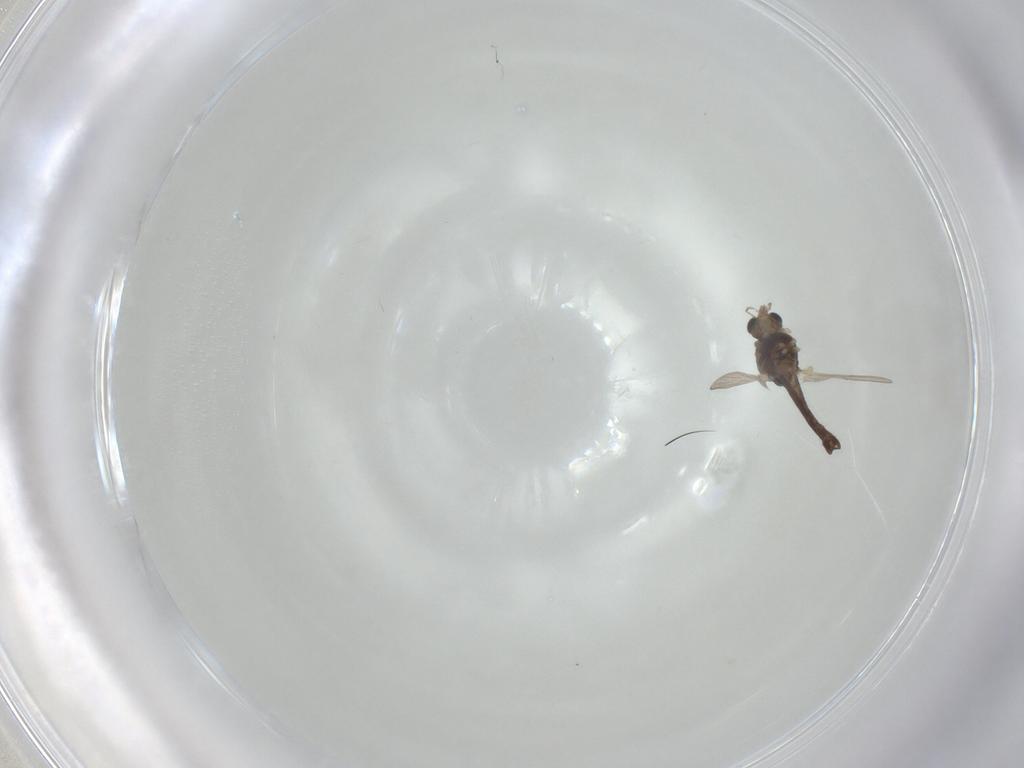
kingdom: Animalia
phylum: Arthropoda
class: Insecta
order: Diptera
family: Chironomidae
